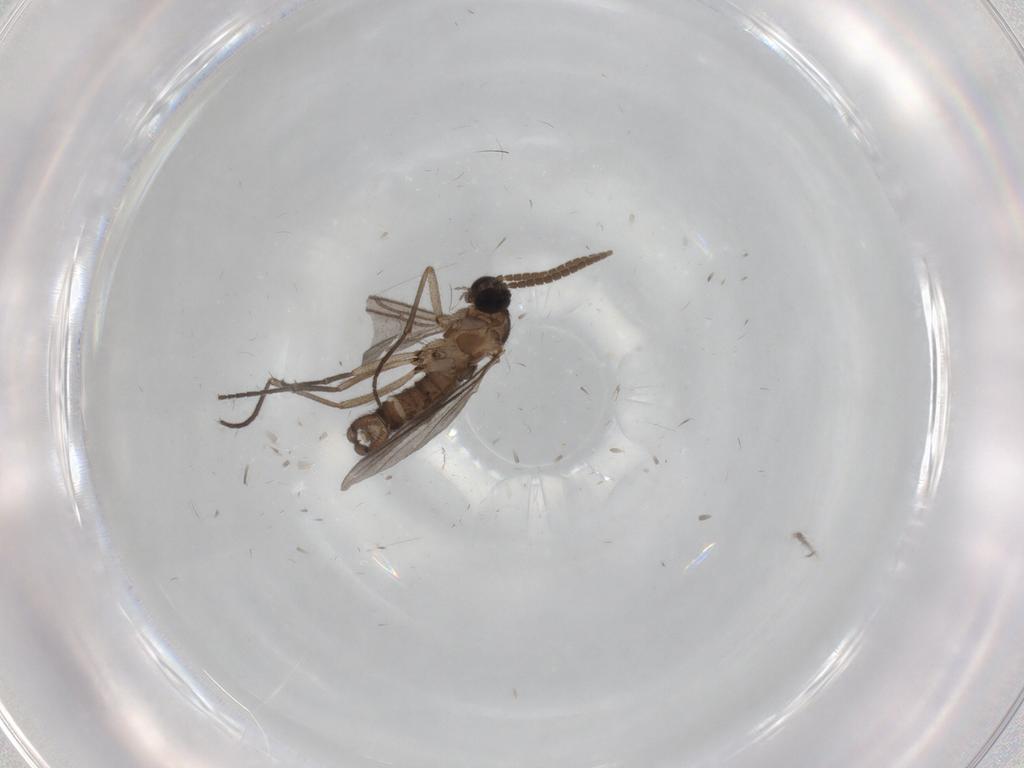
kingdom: Animalia
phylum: Arthropoda
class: Insecta
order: Diptera
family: Cecidomyiidae
